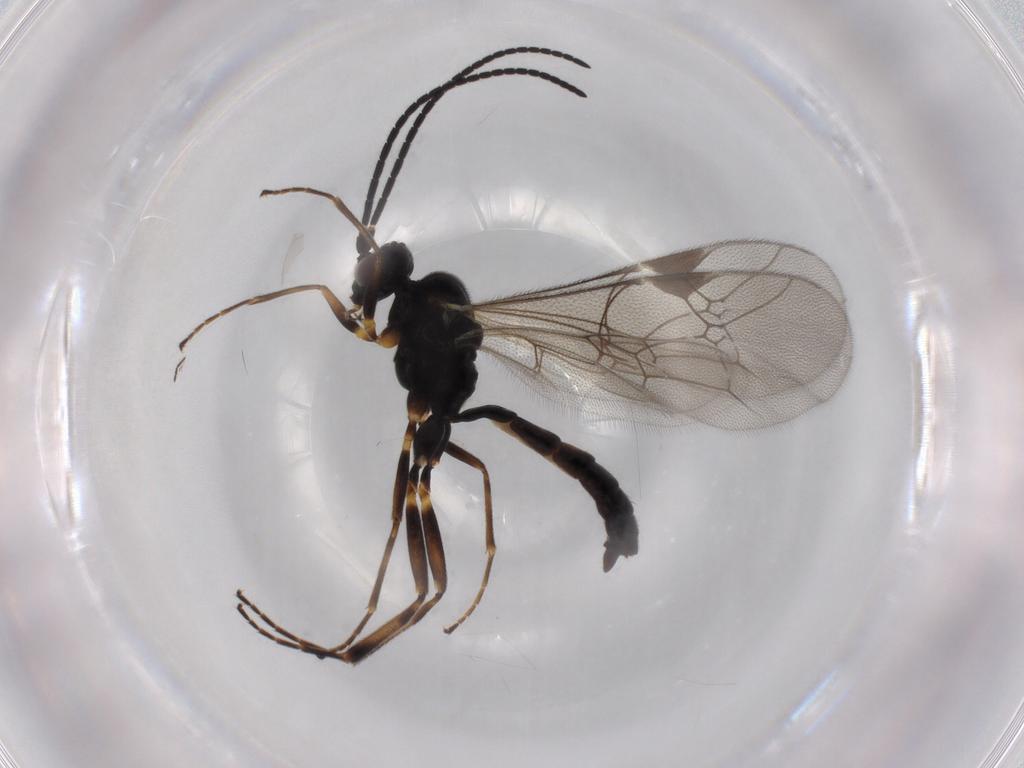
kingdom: Animalia
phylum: Arthropoda
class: Insecta
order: Hymenoptera
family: Ichneumonidae
